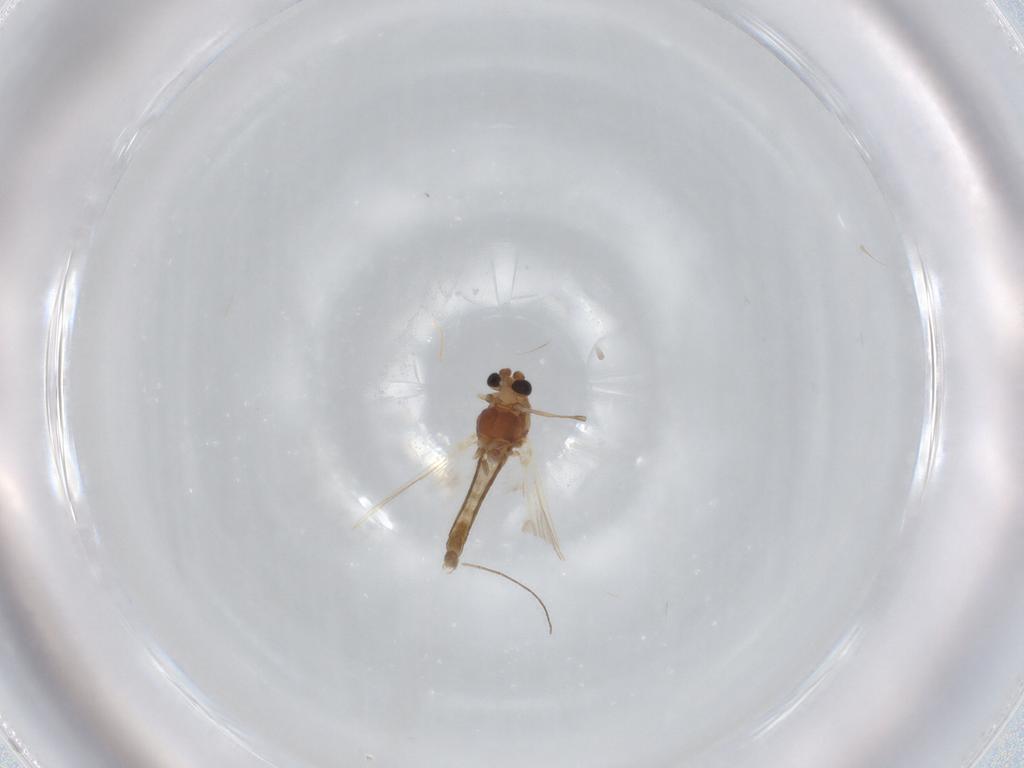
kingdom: Animalia
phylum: Arthropoda
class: Insecta
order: Diptera
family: Chironomidae
